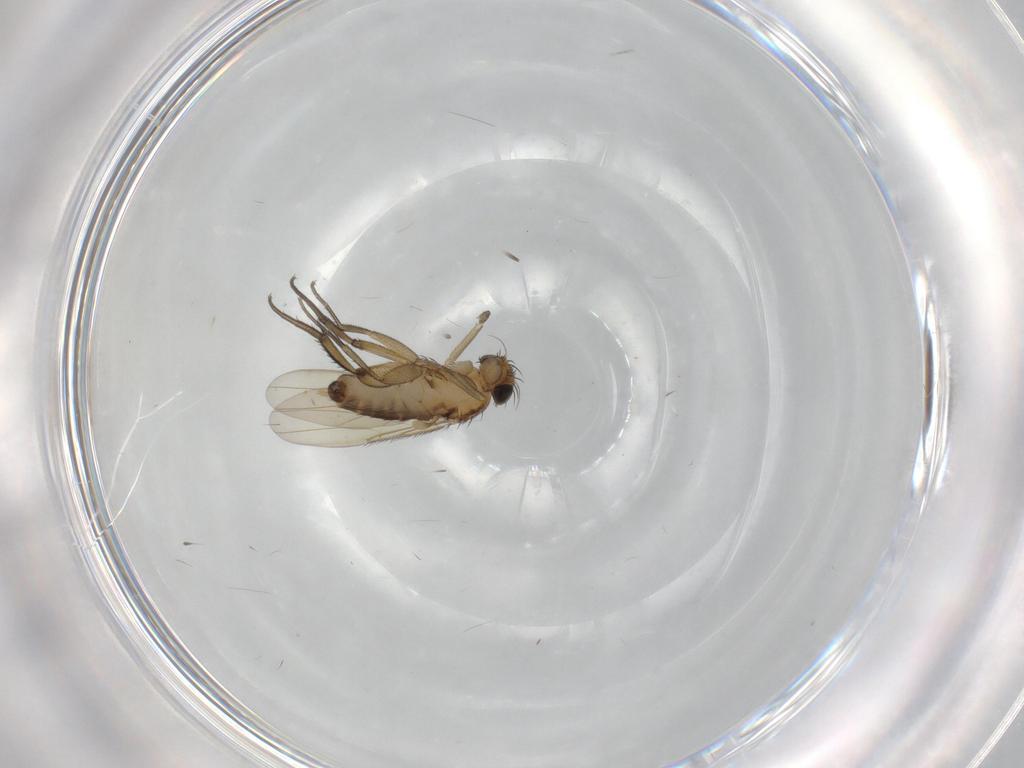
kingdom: Animalia
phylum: Arthropoda
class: Insecta
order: Diptera
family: Phoridae
